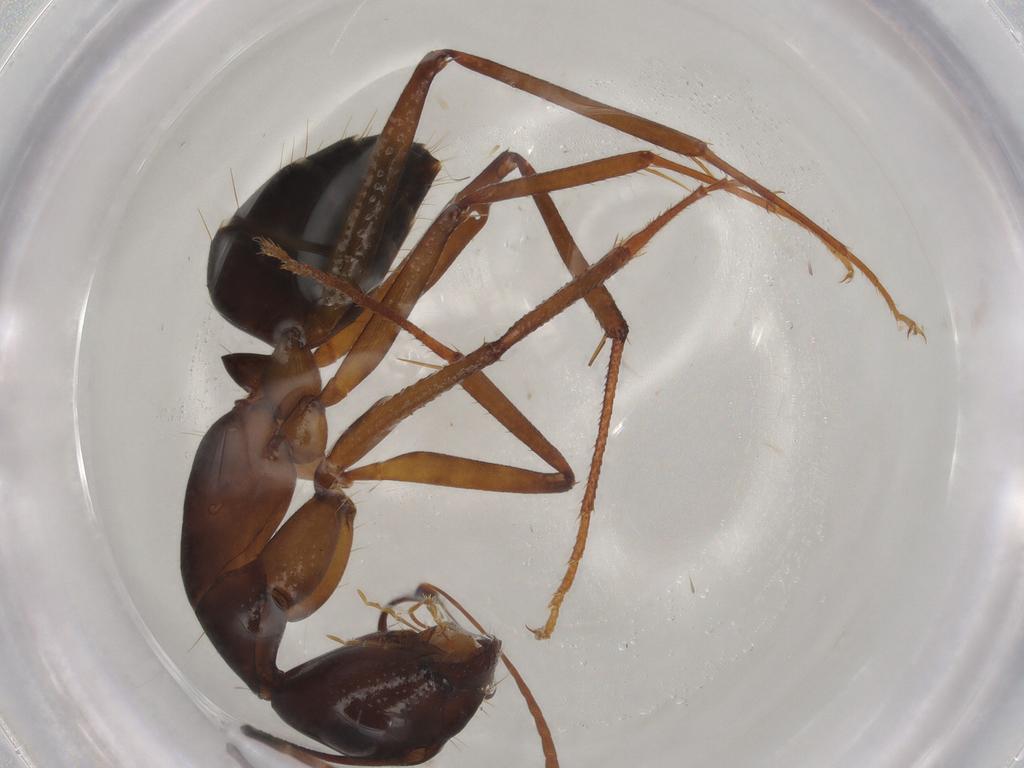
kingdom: Animalia
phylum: Arthropoda
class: Insecta
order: Hymenoptera
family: Formicidae
